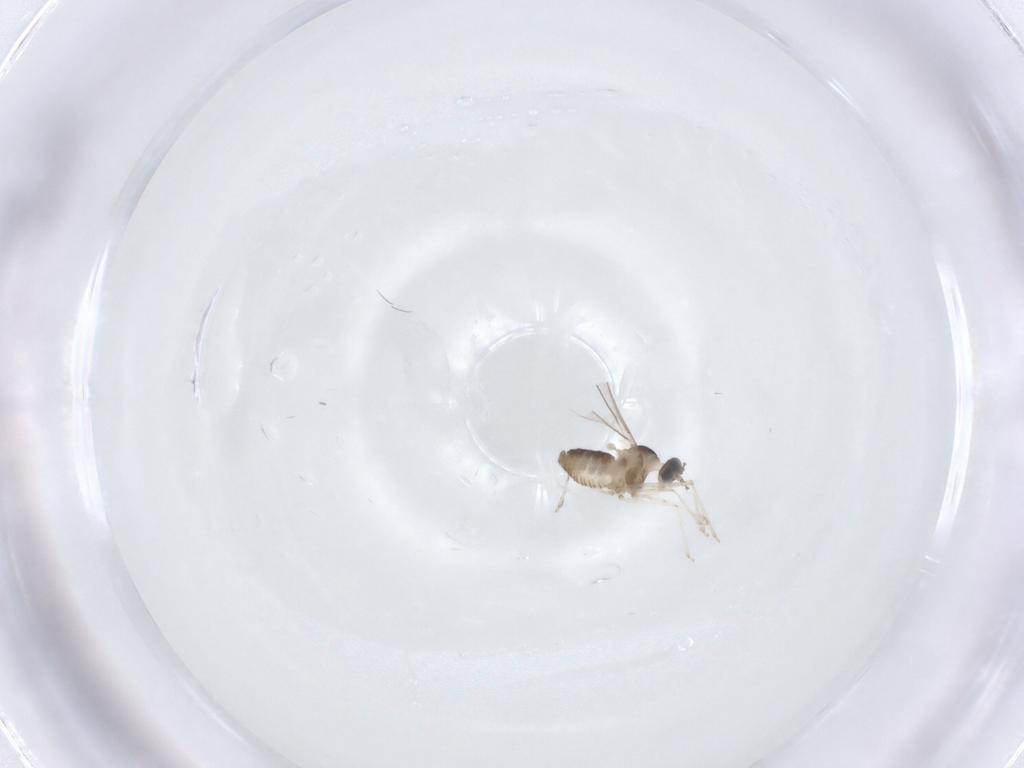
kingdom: Animalia
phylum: Arthropoda
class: Insecta
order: Diptera
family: Cecidomyiidae
